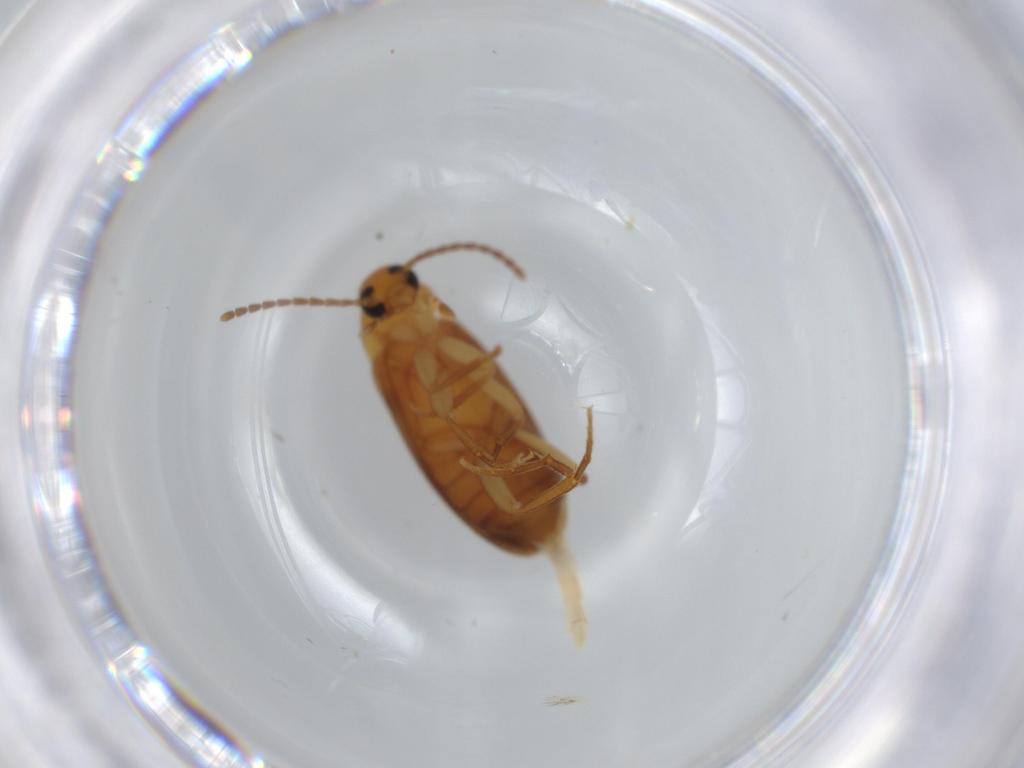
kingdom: Animalia
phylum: Arthropoda
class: Insecta
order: Coleoptera
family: Scraptiidae
